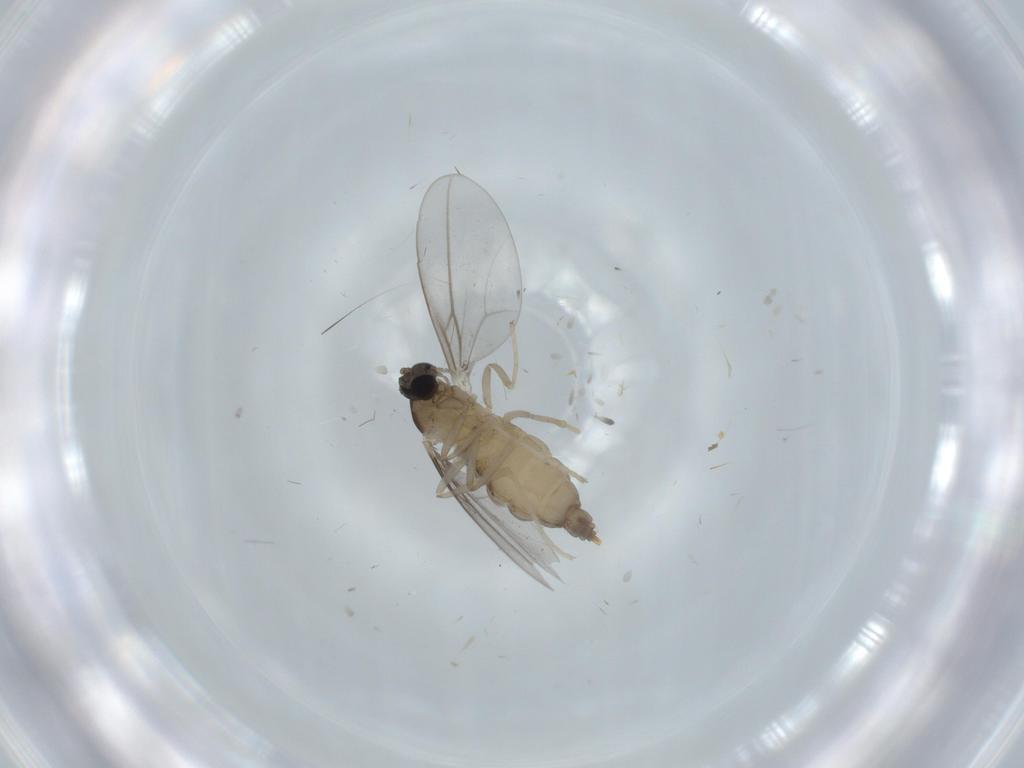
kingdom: Animalia
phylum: Arthropoda
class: Insecta
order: Diptera
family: Cecidomyiidae
